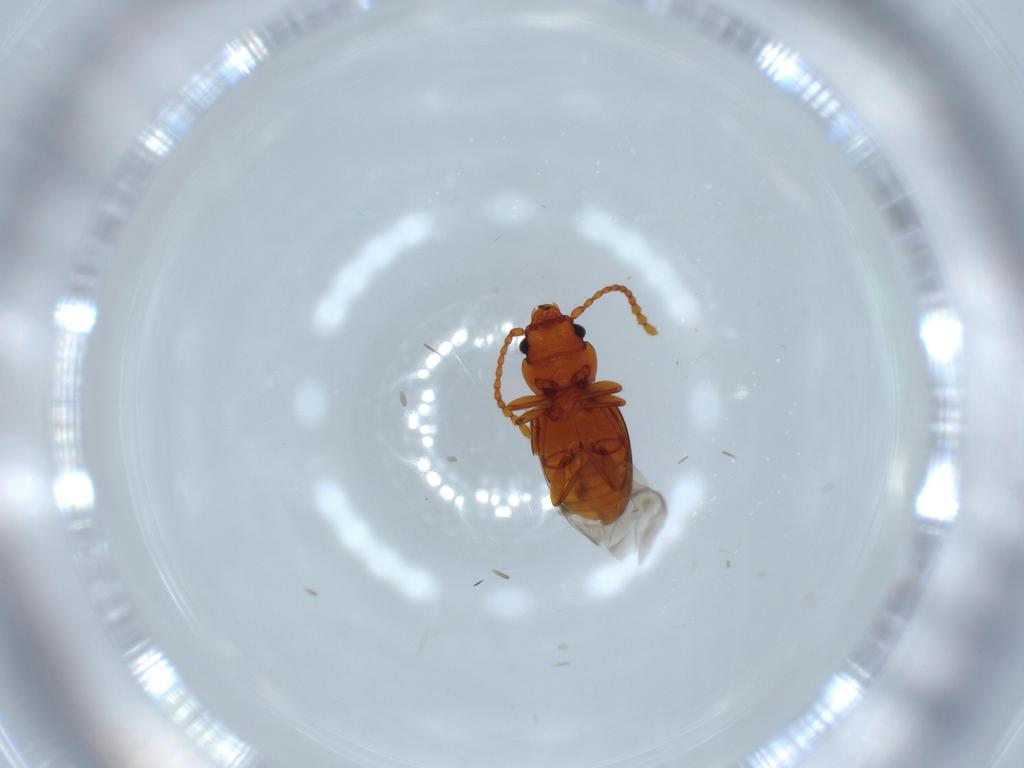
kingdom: Animalia
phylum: Arthropoda
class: Insecta
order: Coleoptera
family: Laemophloeidae
